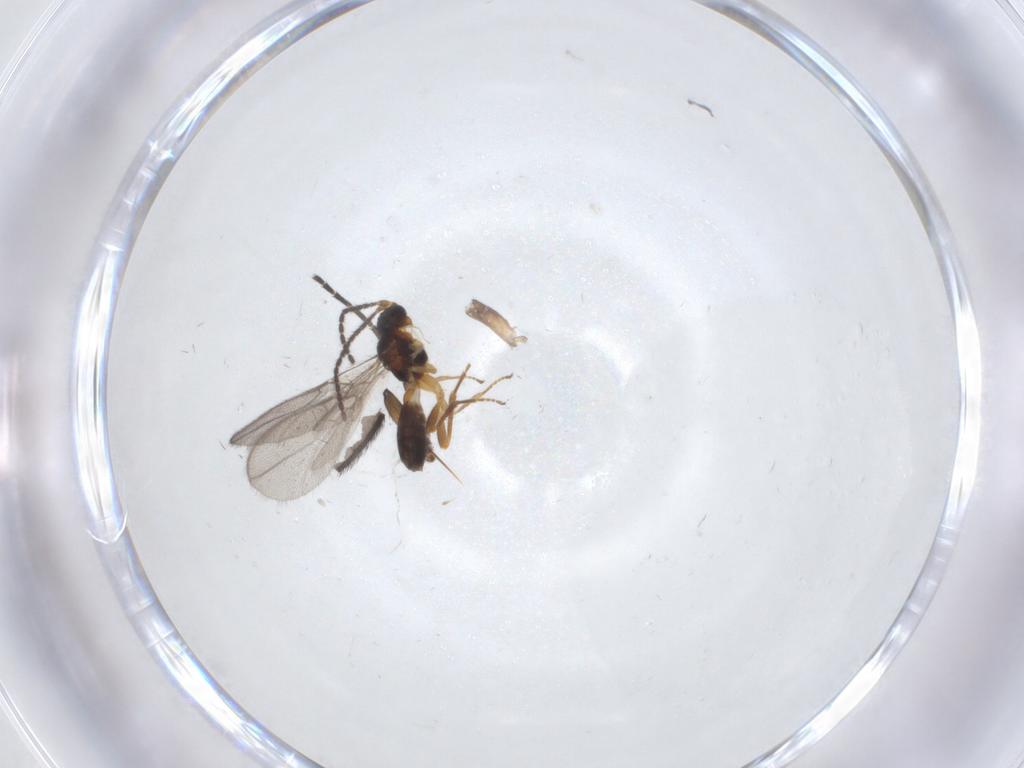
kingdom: Animalia
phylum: Arthropoda
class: Insecta
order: Hymenoptera
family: Braconidae
